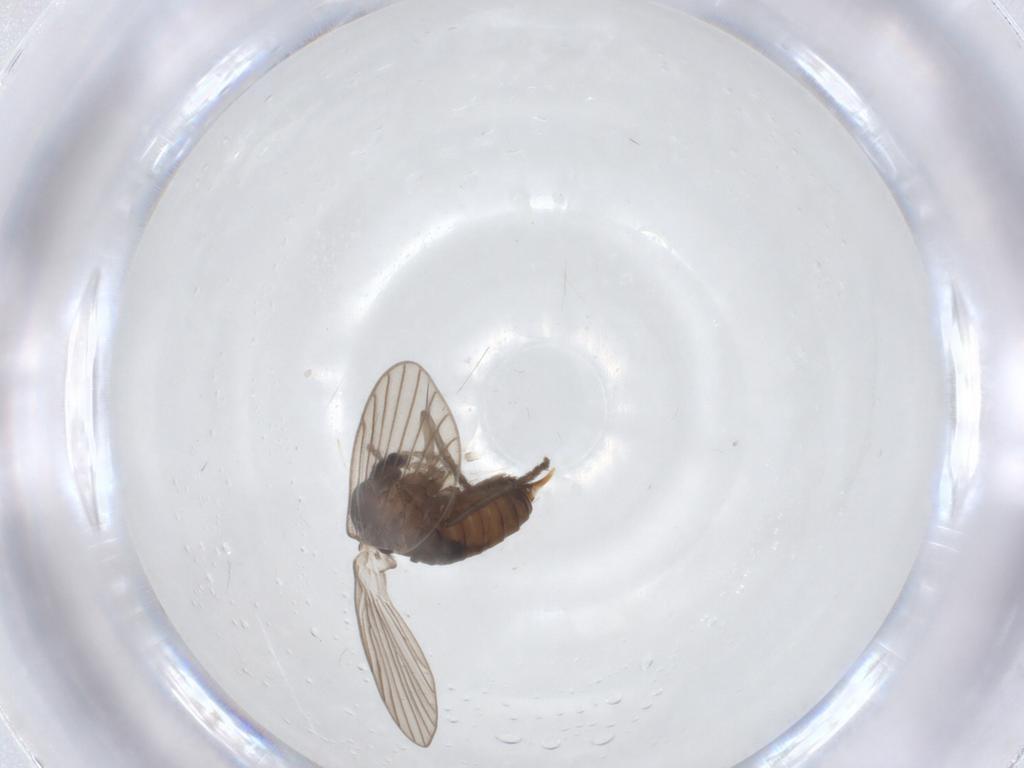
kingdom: Animalia
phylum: Arthropoda
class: Insecta
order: Diptera
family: Psychodidae
